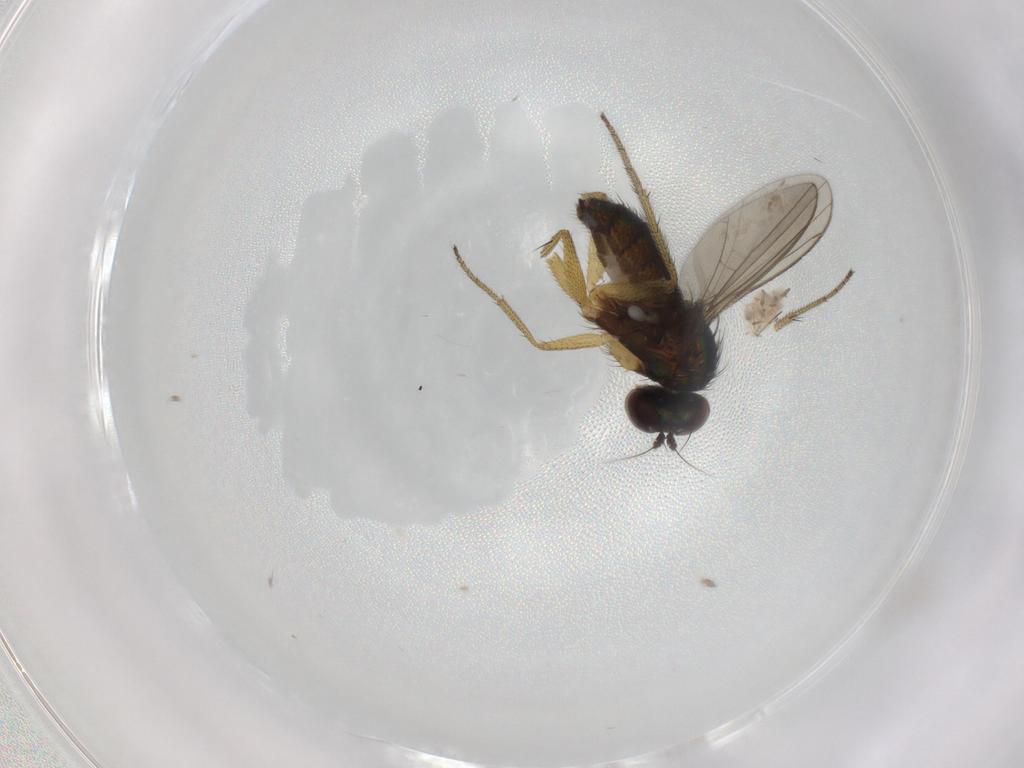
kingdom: Animalia
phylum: Arthropoda
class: Insecta
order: Diptera
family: Dolichopodidae
